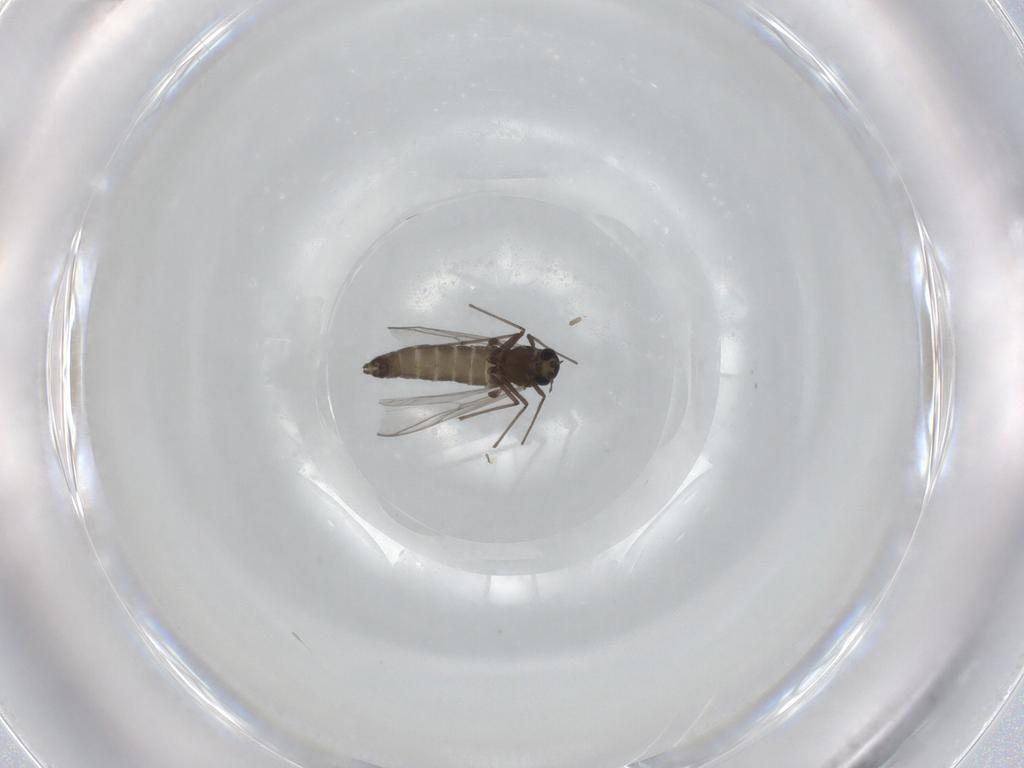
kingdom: Animalia
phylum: Arthropoda
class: Insecta
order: Diptera
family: Chironomidae
